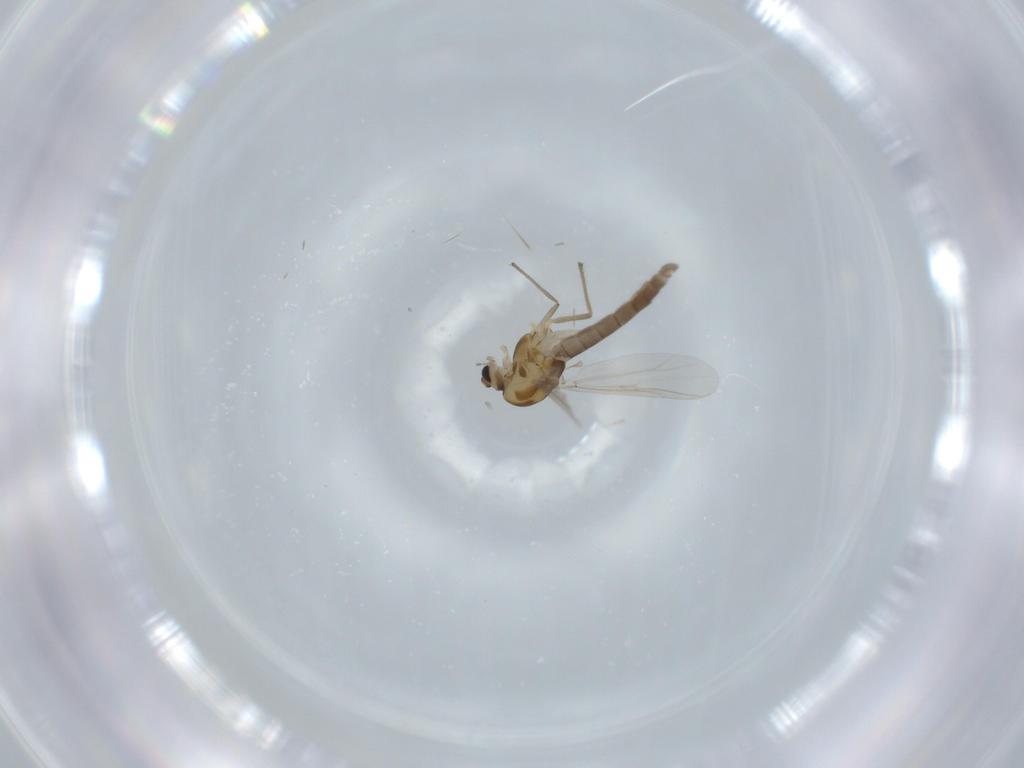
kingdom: Animalia
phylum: Arthropoda
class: Insecta
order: Diptera
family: Chironomidae
